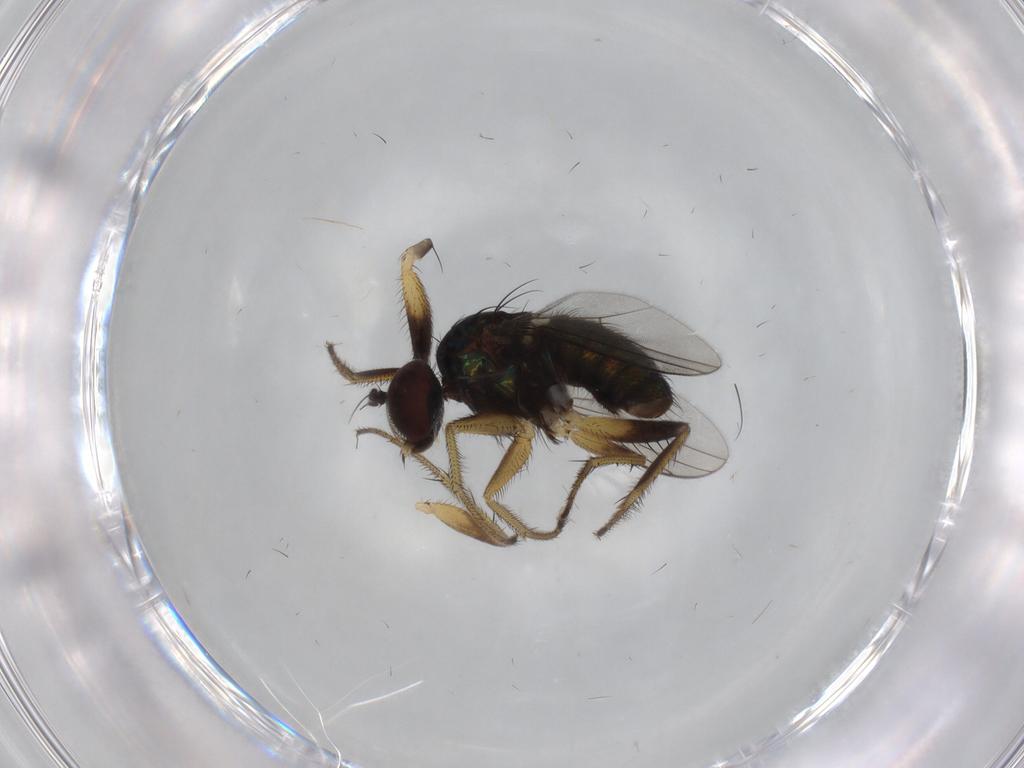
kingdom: Animalia
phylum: Arthropoda
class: Insecta
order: Diptera
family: Dolichopodidae
